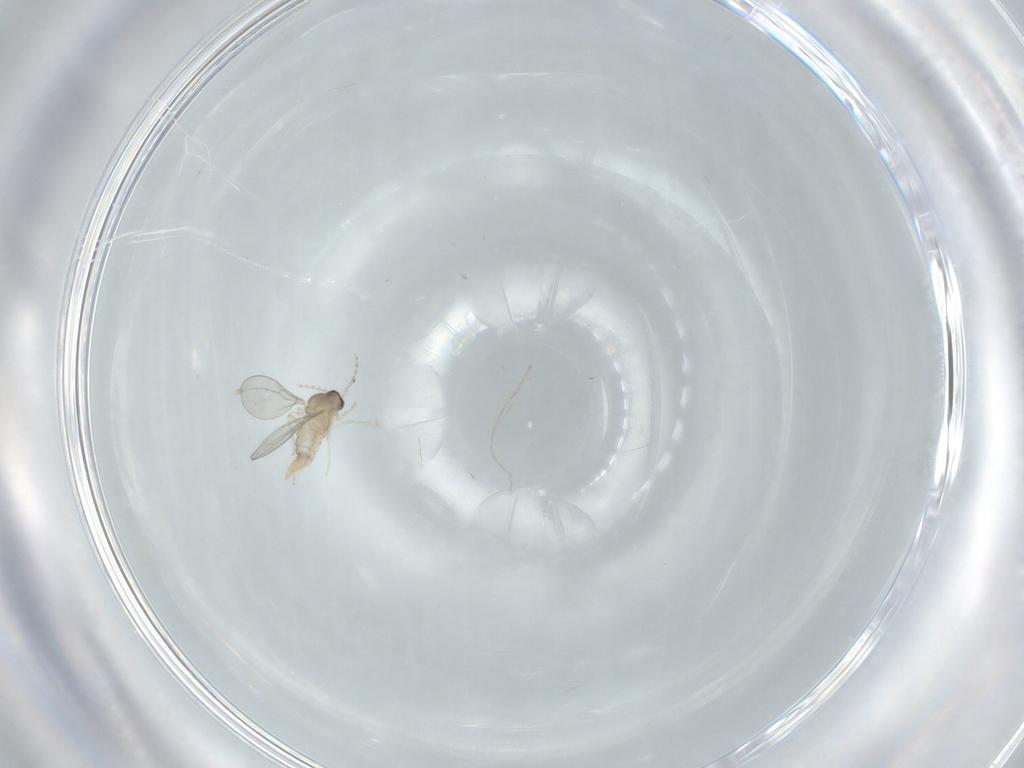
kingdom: Animalia
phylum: Arthropoda
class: Insecta
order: Diptera
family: Cecidomyiidae
